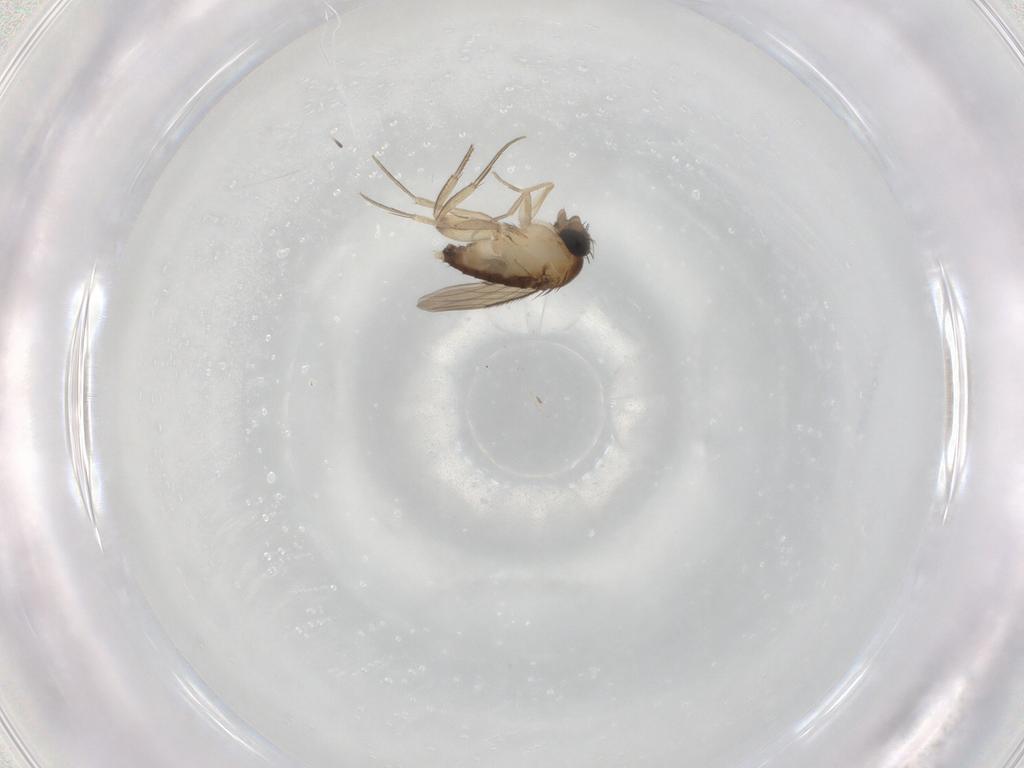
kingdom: Animalia
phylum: Arthropoda
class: Insecta
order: Diptera
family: Phoridae
